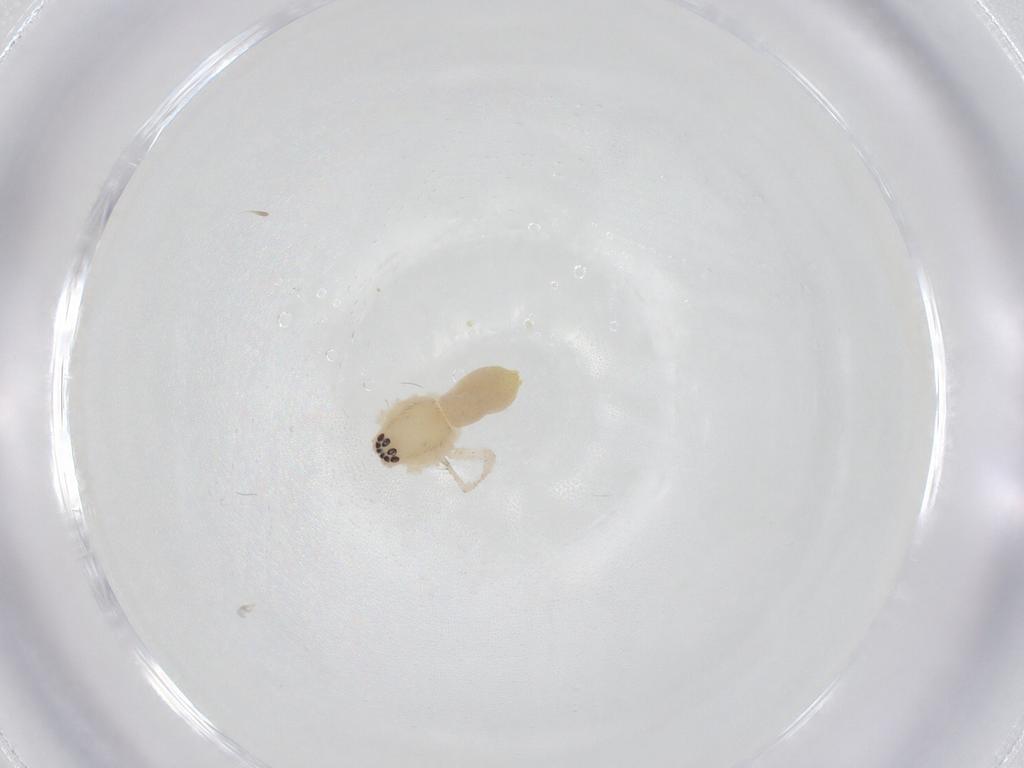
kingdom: Animalia
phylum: Arthropoda
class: Arachnida
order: Araneae
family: Anyphaenidae
